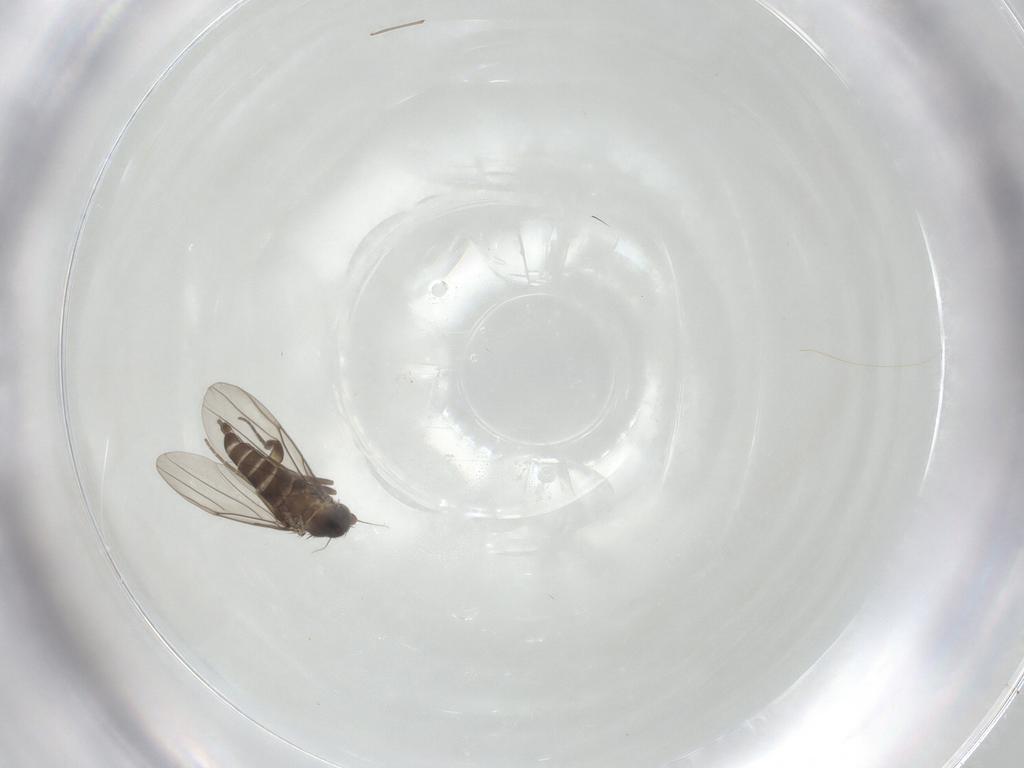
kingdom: Animalia
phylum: Arthropoda
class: Insecta
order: Diptera
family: Phoridae
